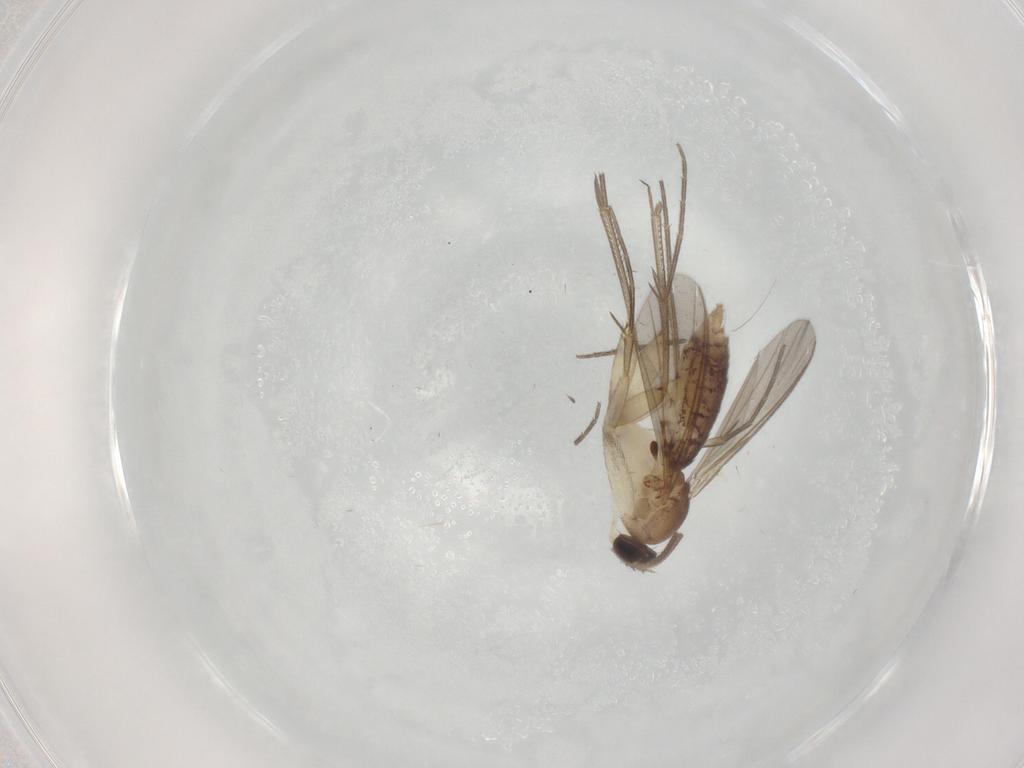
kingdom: Animalia
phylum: Arthropoda
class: Insecta
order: Diptera
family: Mycetophilidae
